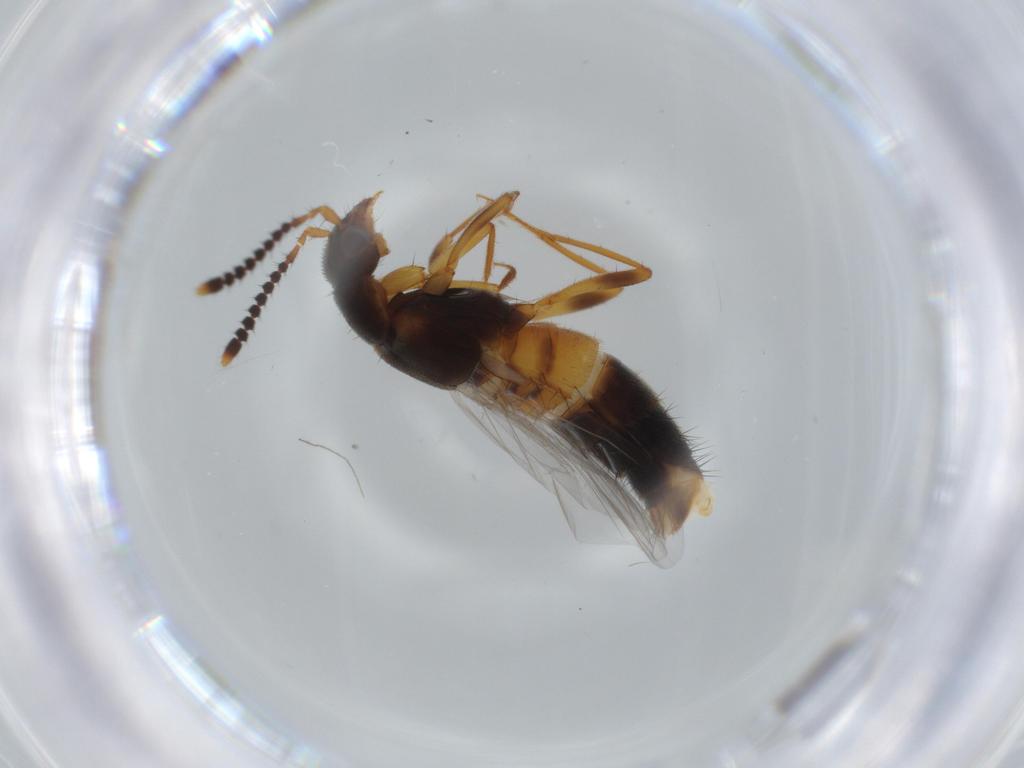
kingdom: Animalia
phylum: Arthropoda
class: Insecta
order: Coleoptera
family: Staphylinidae
